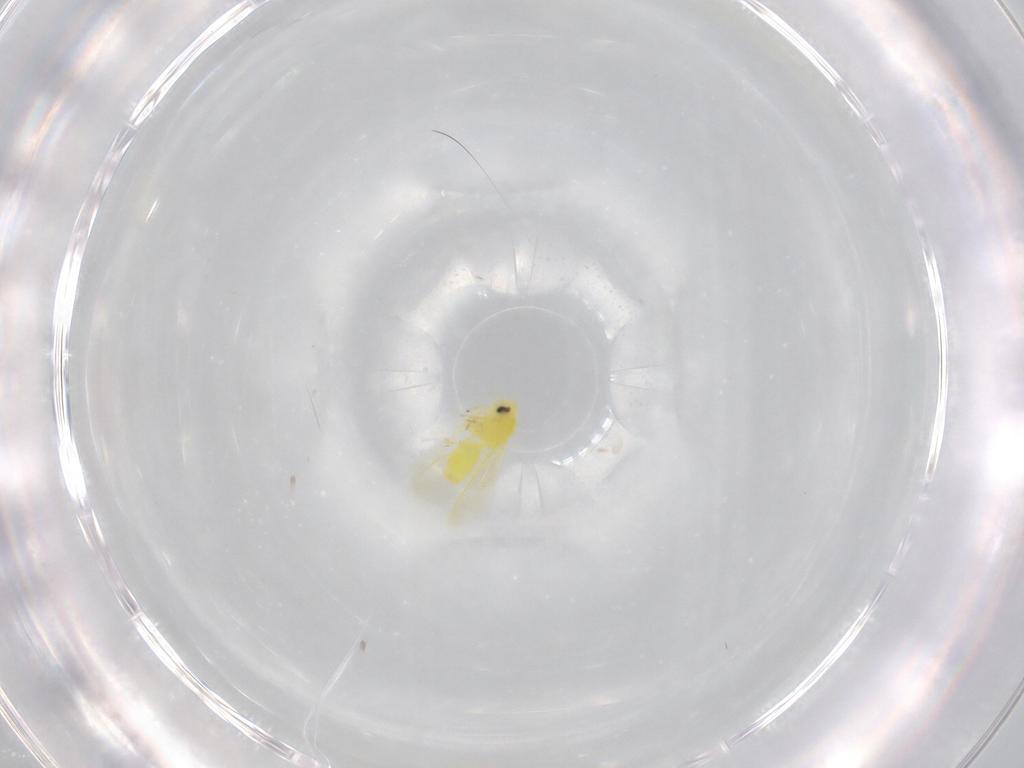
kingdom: Animalia
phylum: Arthropoda
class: Insecta
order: Hemiptera
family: Aleyrodidae
